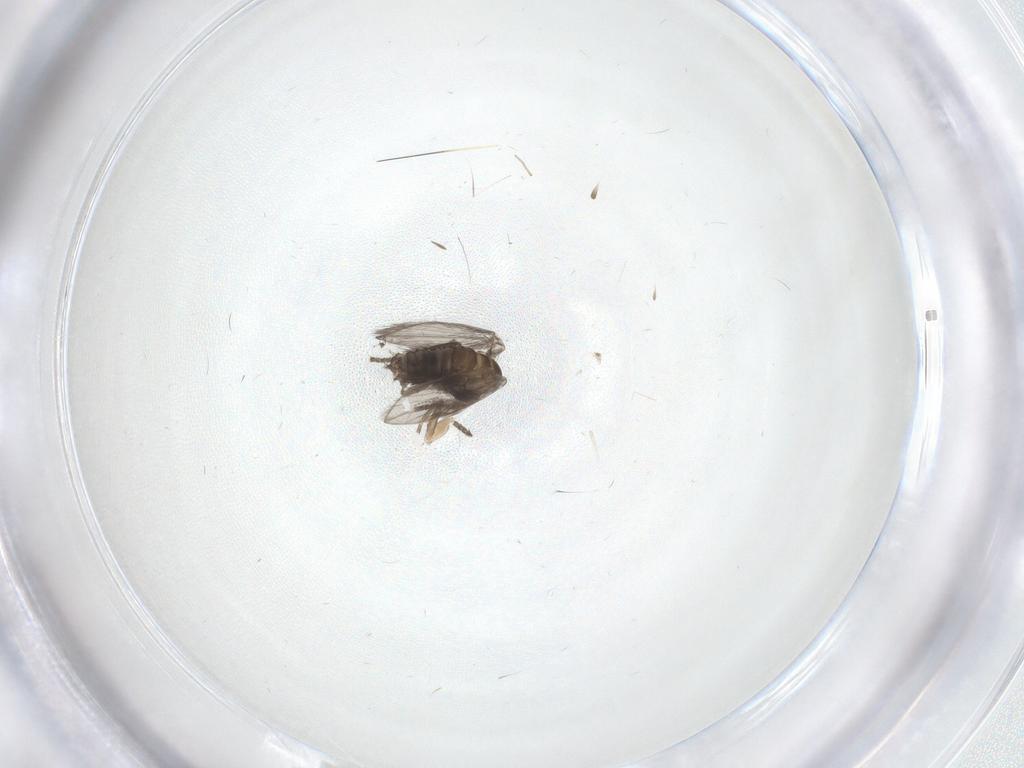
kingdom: Animalia
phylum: Arthropoda
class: Insecta
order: Diptera
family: Psychodidae
